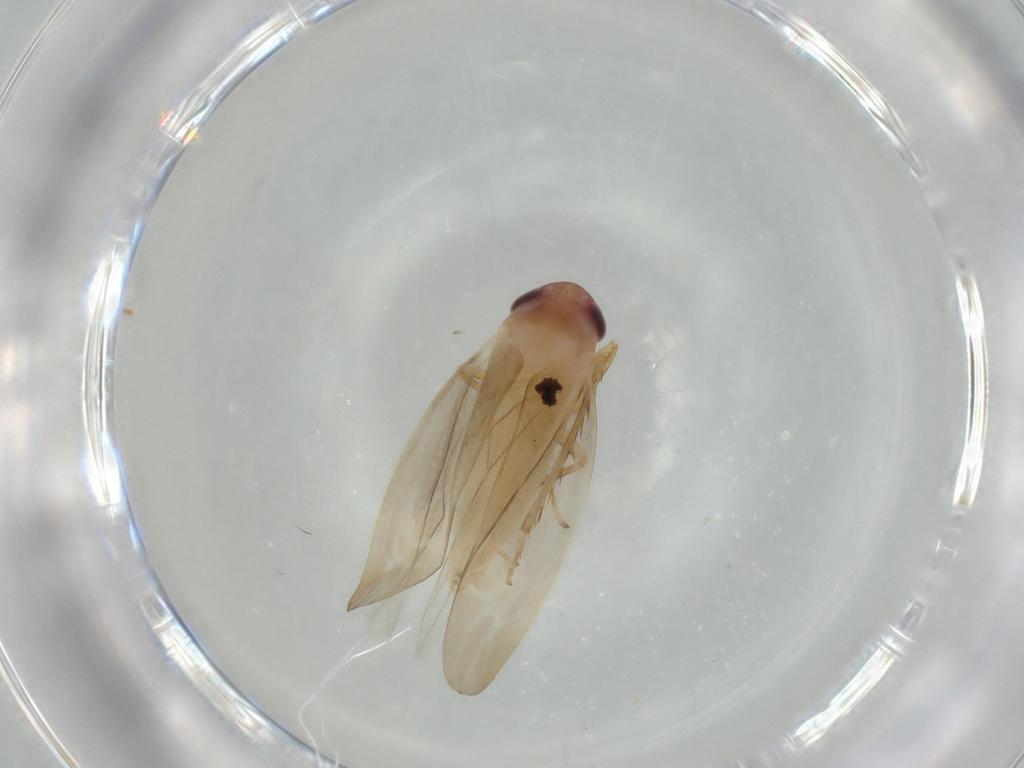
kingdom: Animalia
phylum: Arthropoda
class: Insecta
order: Hemiptera
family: Cicadellidae
